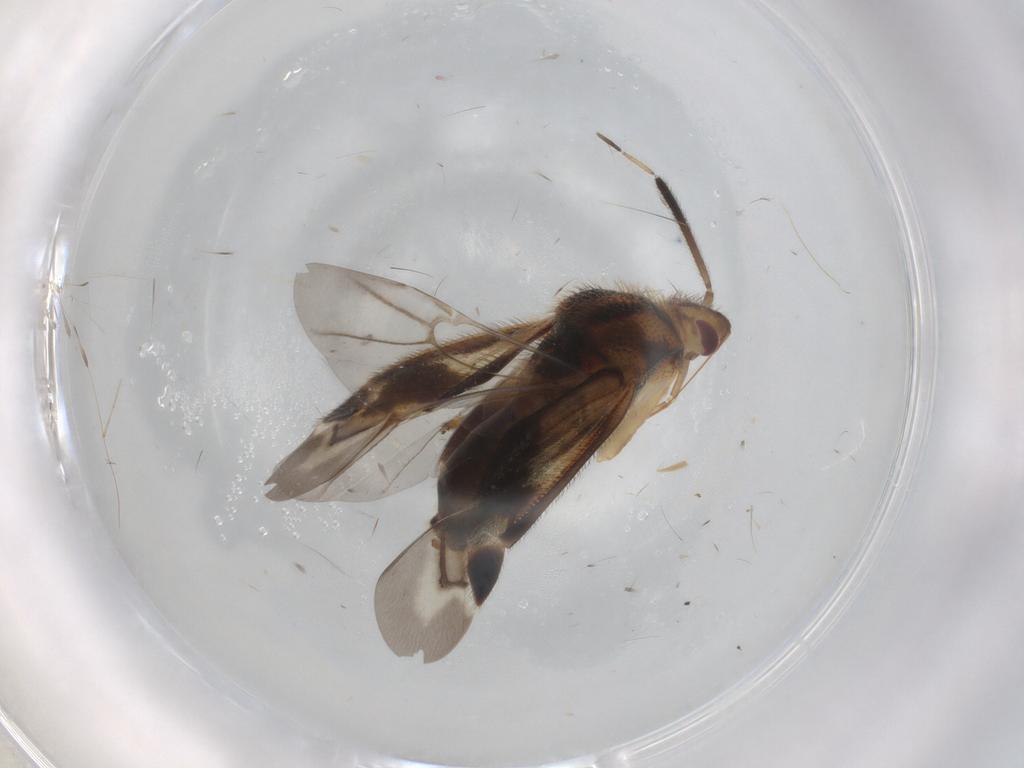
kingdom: Animalia
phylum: Arthropoda
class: Insecta
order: Hemiptera
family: Miridae
